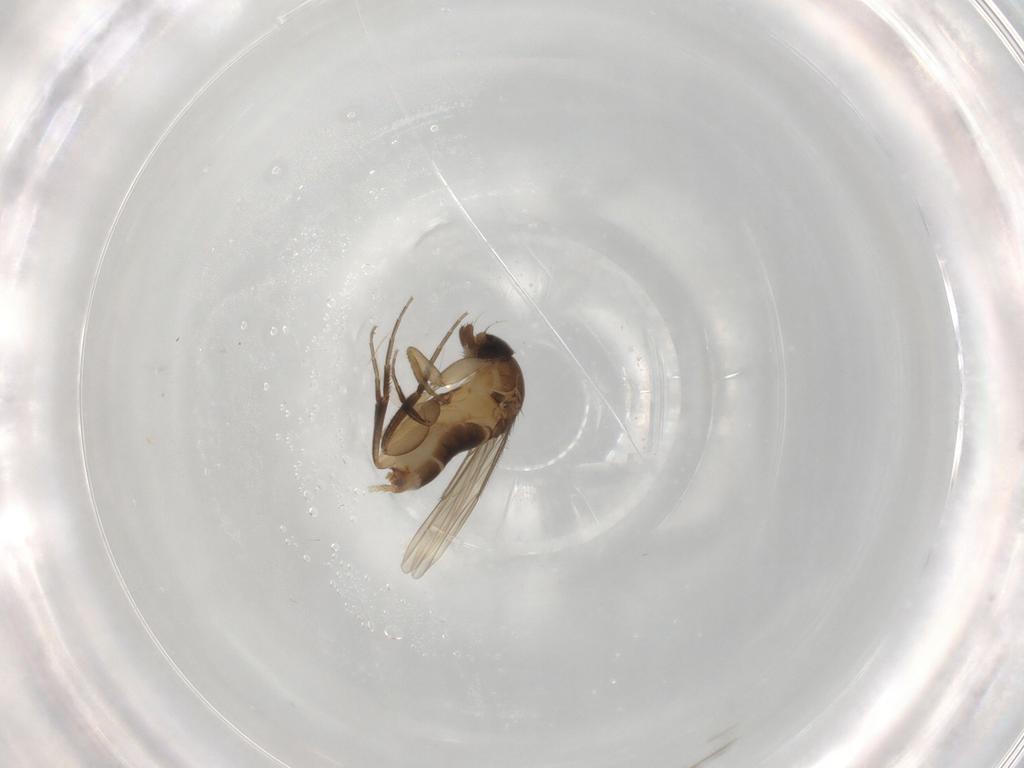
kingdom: Animalia
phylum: Arthropoda
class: Insecta
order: Diptera
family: Phoridae
